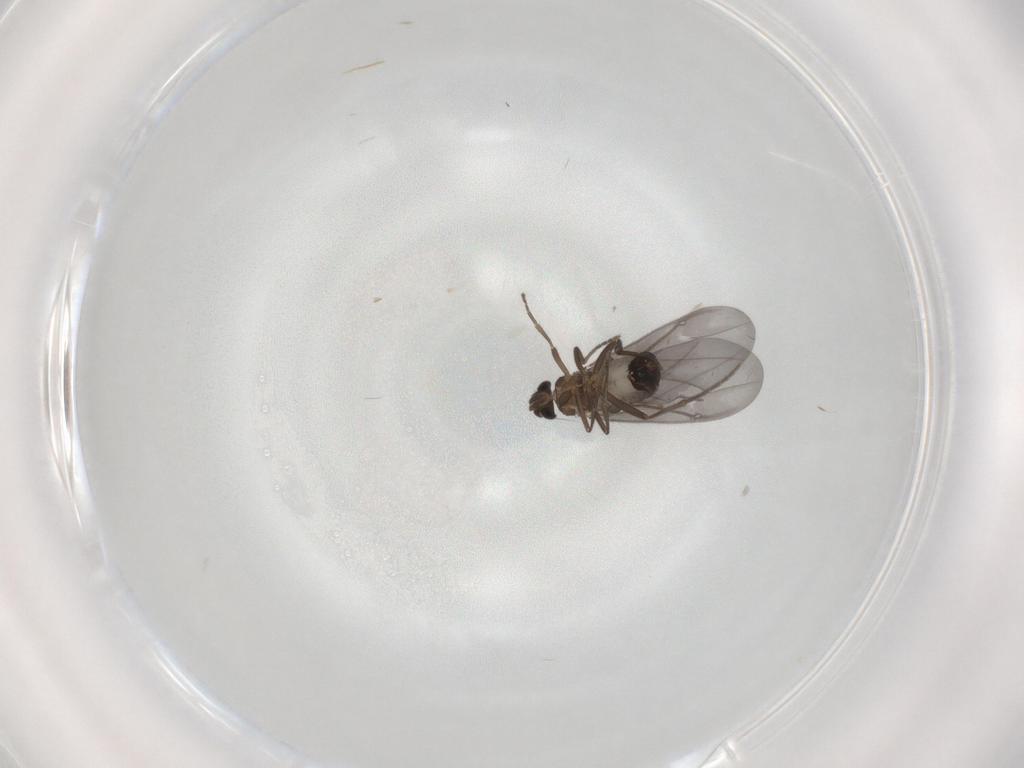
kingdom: Animalia
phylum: Arthropoda
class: Insecta
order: Diptera
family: Phoridae
